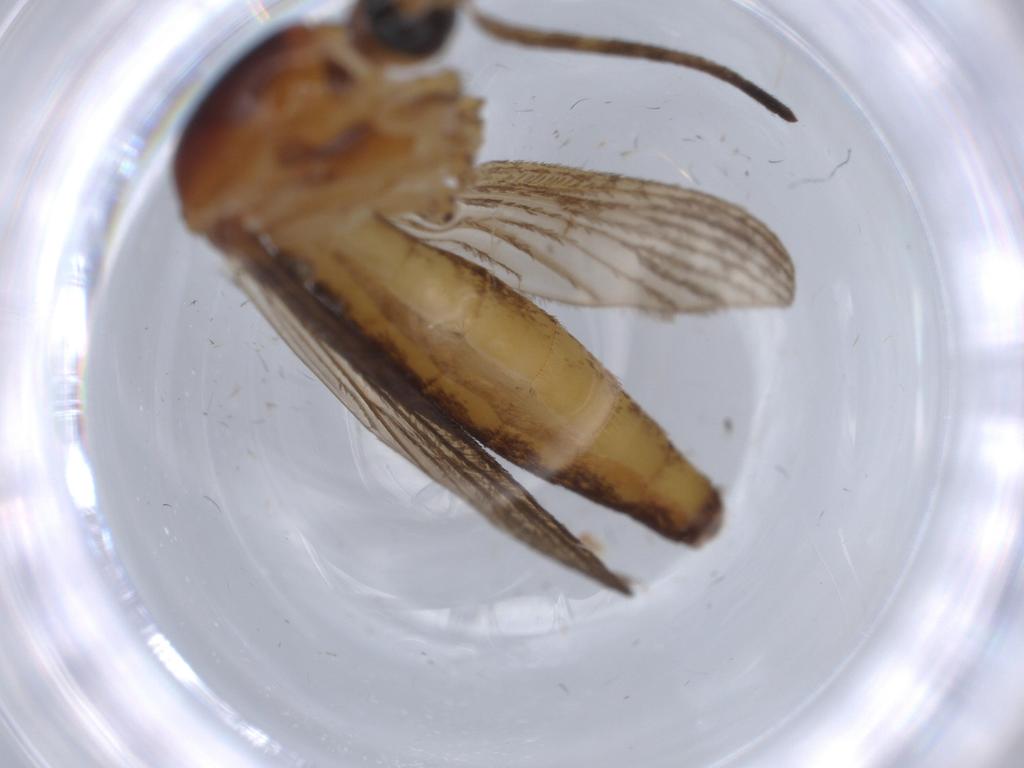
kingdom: Animalia
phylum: Arthropoda
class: Insecta
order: Diptera
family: Chironomidae
